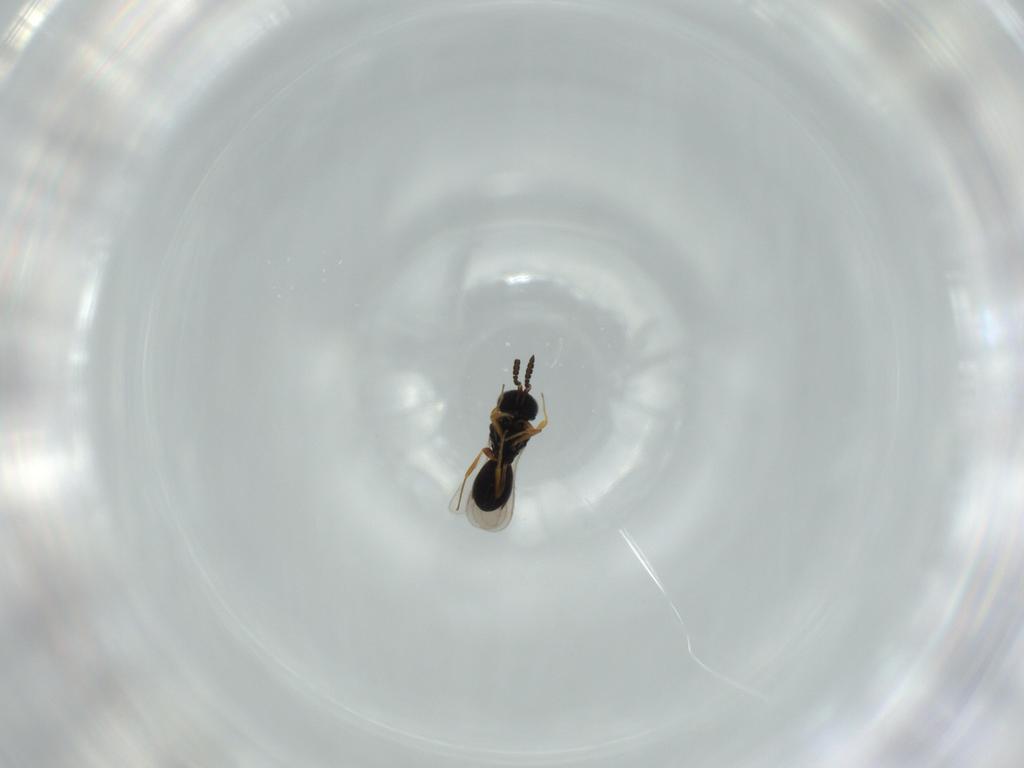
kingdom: Animalia
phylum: Arthropoda
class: Insecta
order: Hymenoptera
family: Scelionidae
